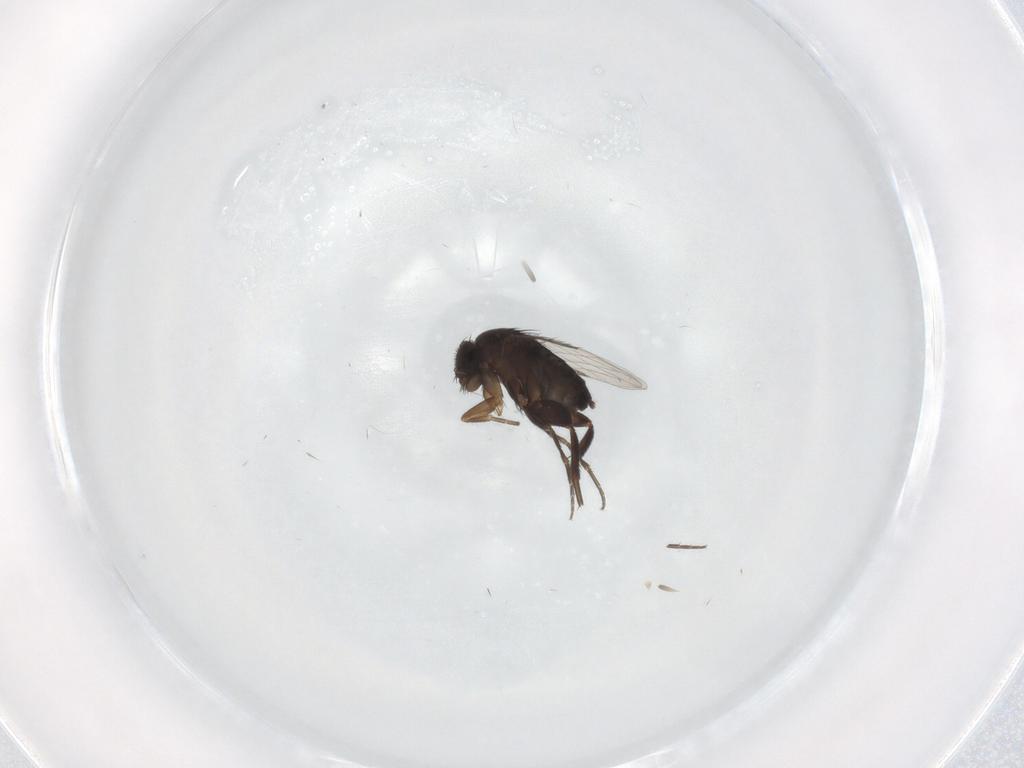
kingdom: Animalia
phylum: Arthropoda
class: Insecta
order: Diptera
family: Phoridae
